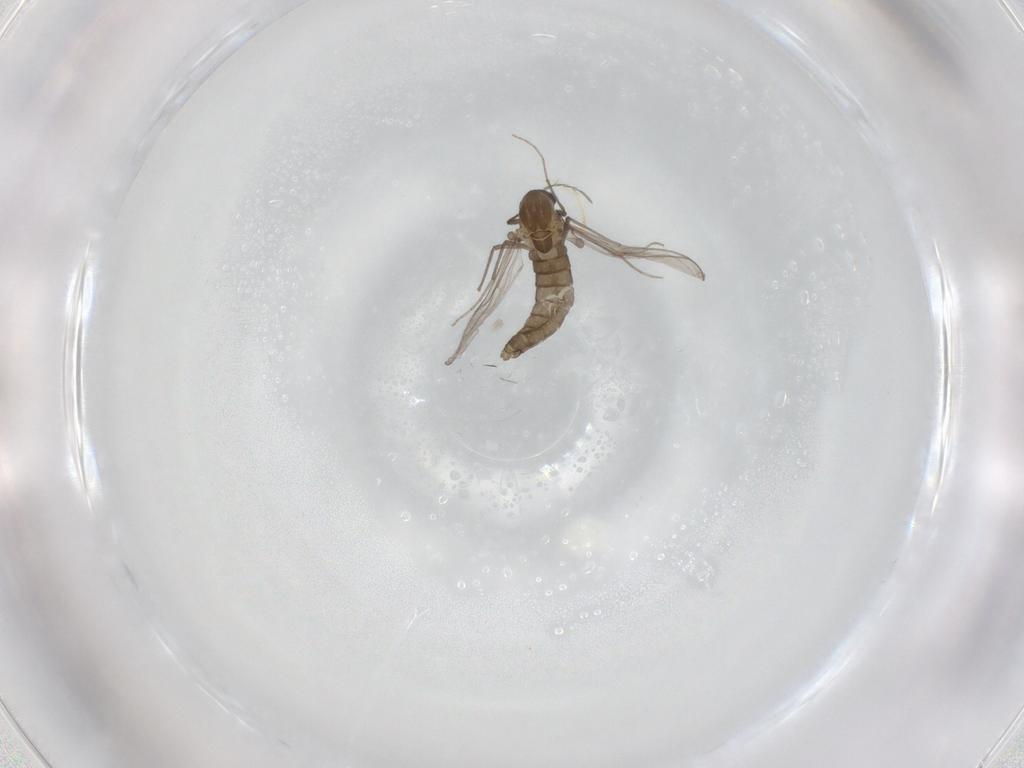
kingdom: Animalia
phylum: Arthropoda
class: Insecta
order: Diptera
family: Chironomidae
